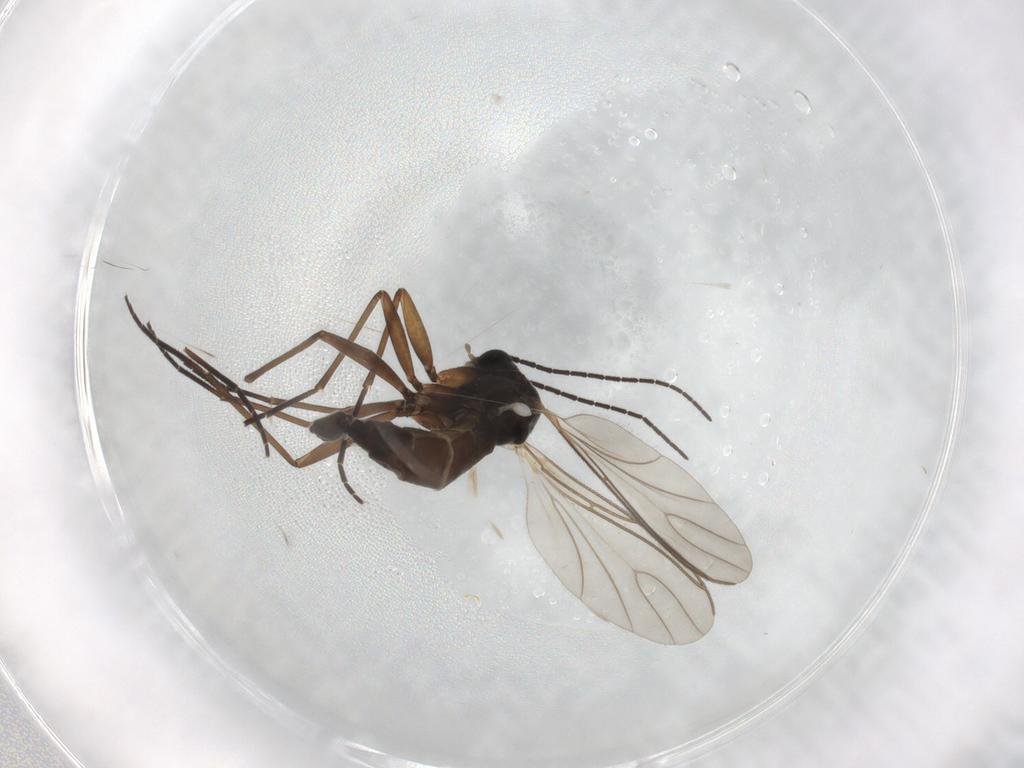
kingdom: Animalia
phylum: Arthropoda
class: Insecta
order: Diptera
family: Sciaridae
